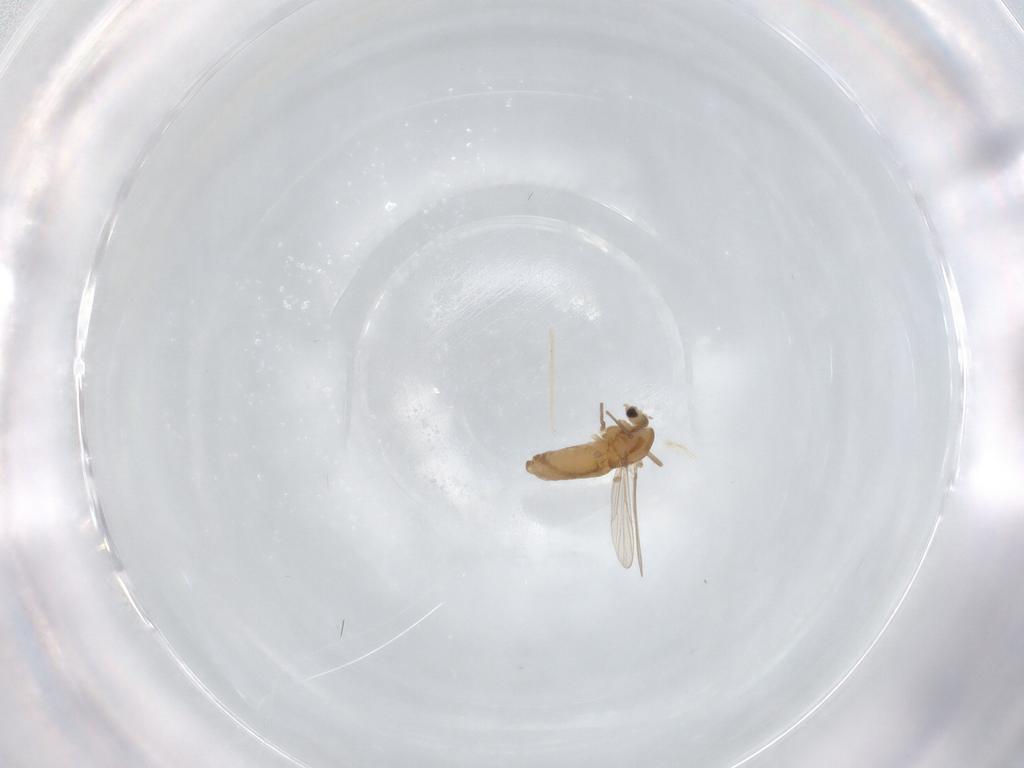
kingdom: Animalia
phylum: Arthropoda
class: Insecta
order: Diptera
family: Chironomidae
